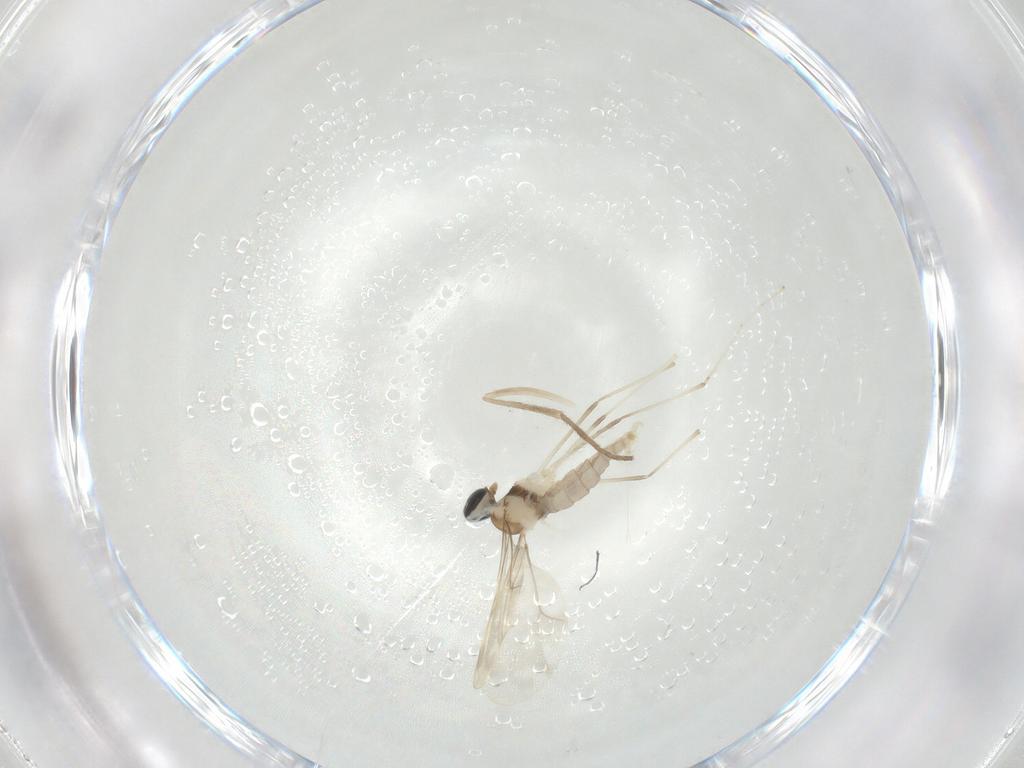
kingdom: Animalia
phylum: Arthropoda
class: Insecta
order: Diptera
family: Cecidomyiidae
